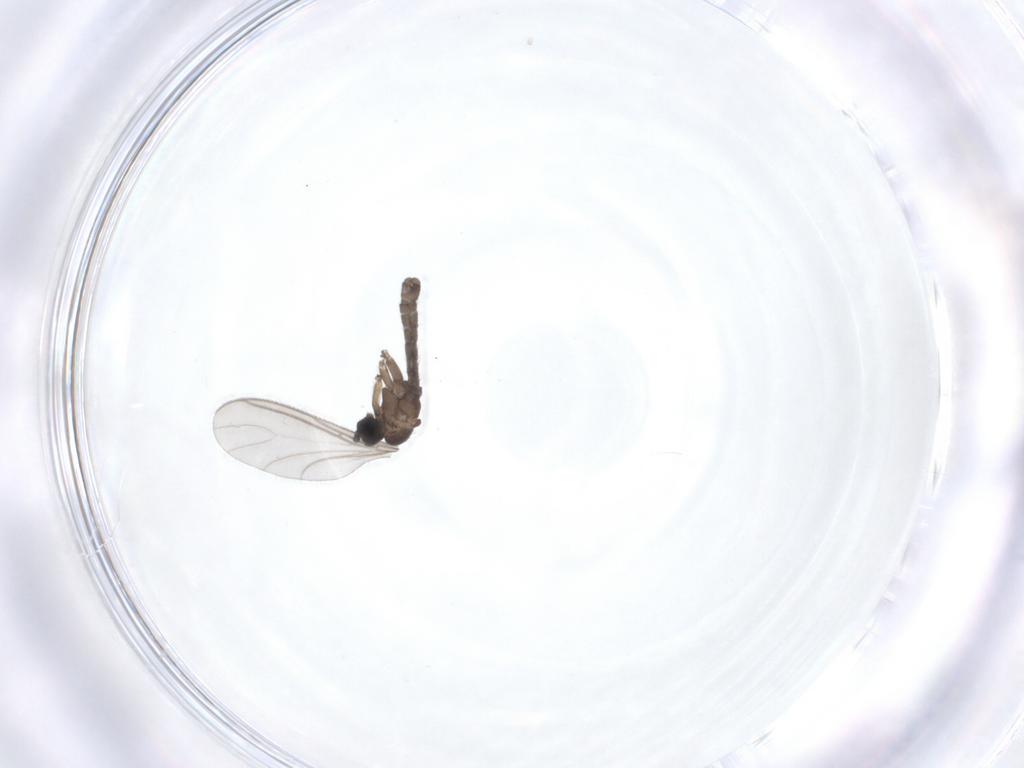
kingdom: Animalia
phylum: Arthropoda
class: Insecta
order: Diptera
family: Sciaridae
